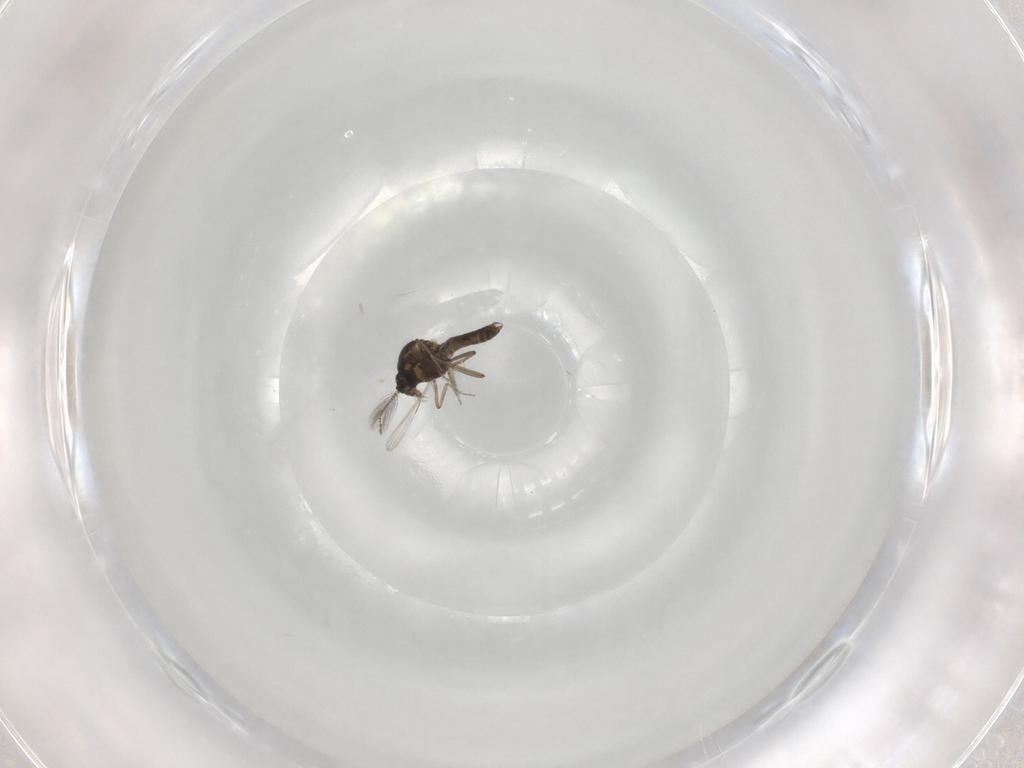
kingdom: Animalia
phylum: Arthropoda
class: Insecta
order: Diptera
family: Ceratopogonidae
